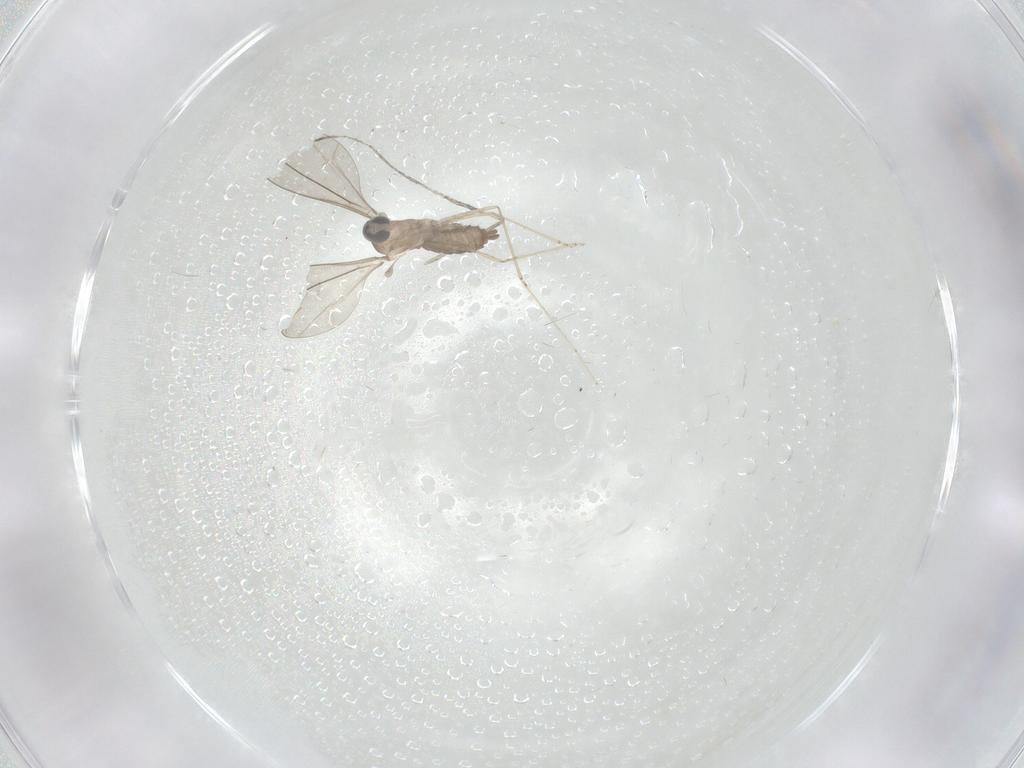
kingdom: Animalia
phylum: Arthropoda
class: Insecta
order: Diptera
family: Cecidomyiidae
